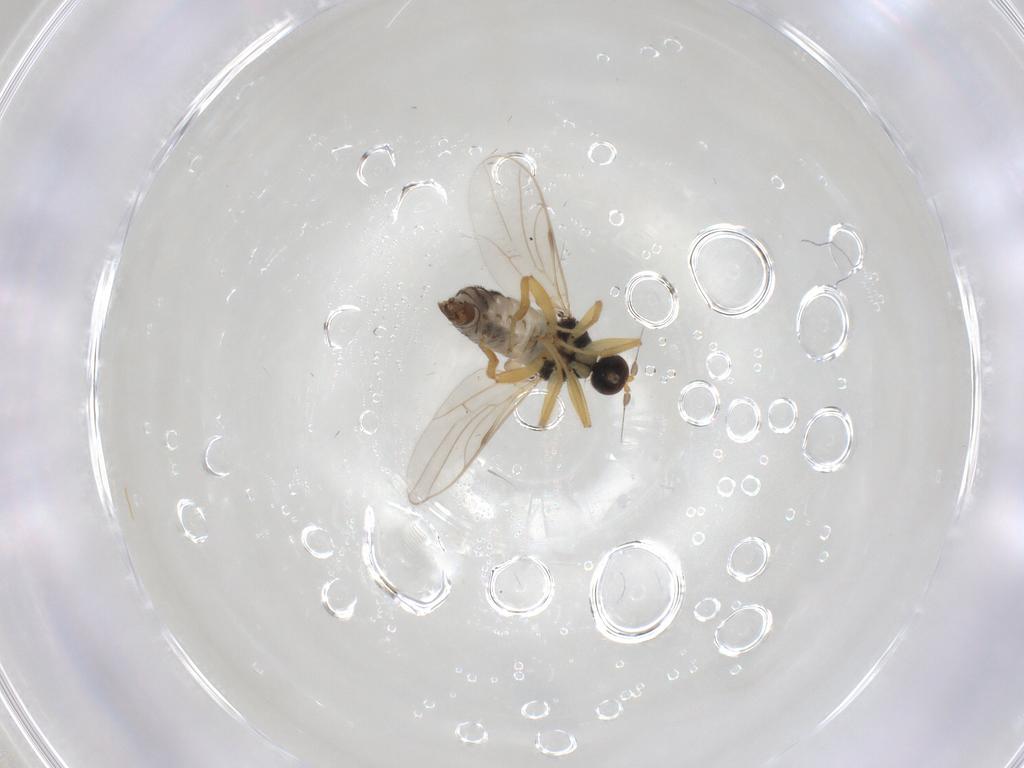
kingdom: Animalia
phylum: Arthropoda
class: Insecta
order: Diptera
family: Hybotidae
